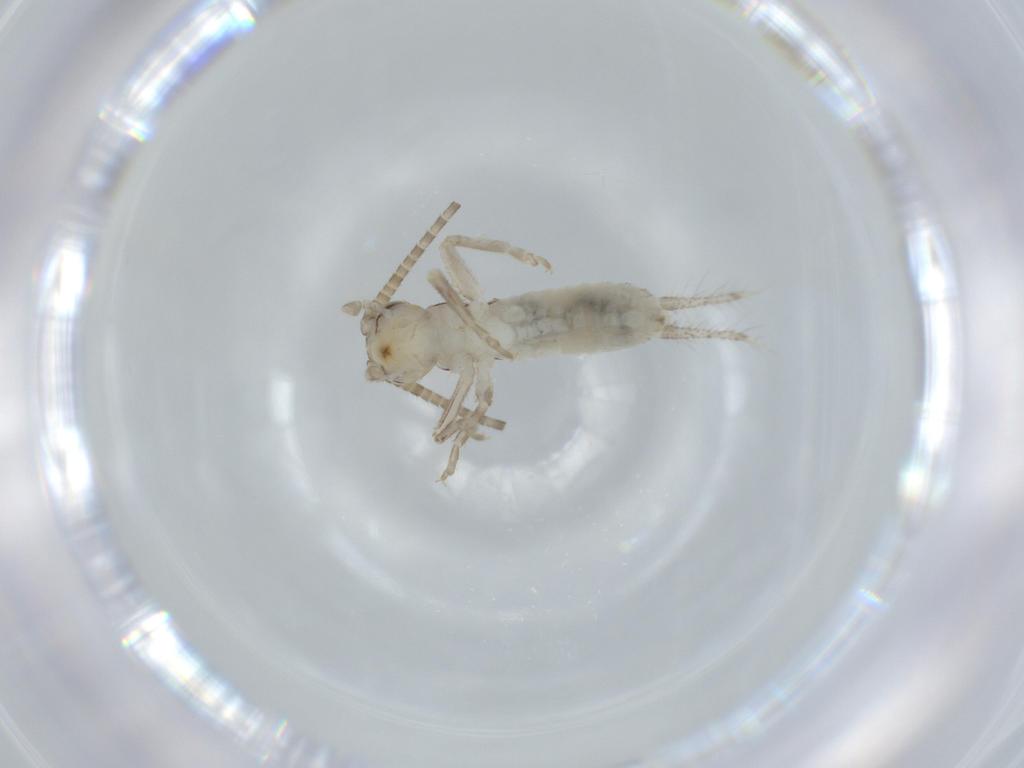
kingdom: Animalia
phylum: Arthropoda
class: Insecta
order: Orthoptera
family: Gryllidae
